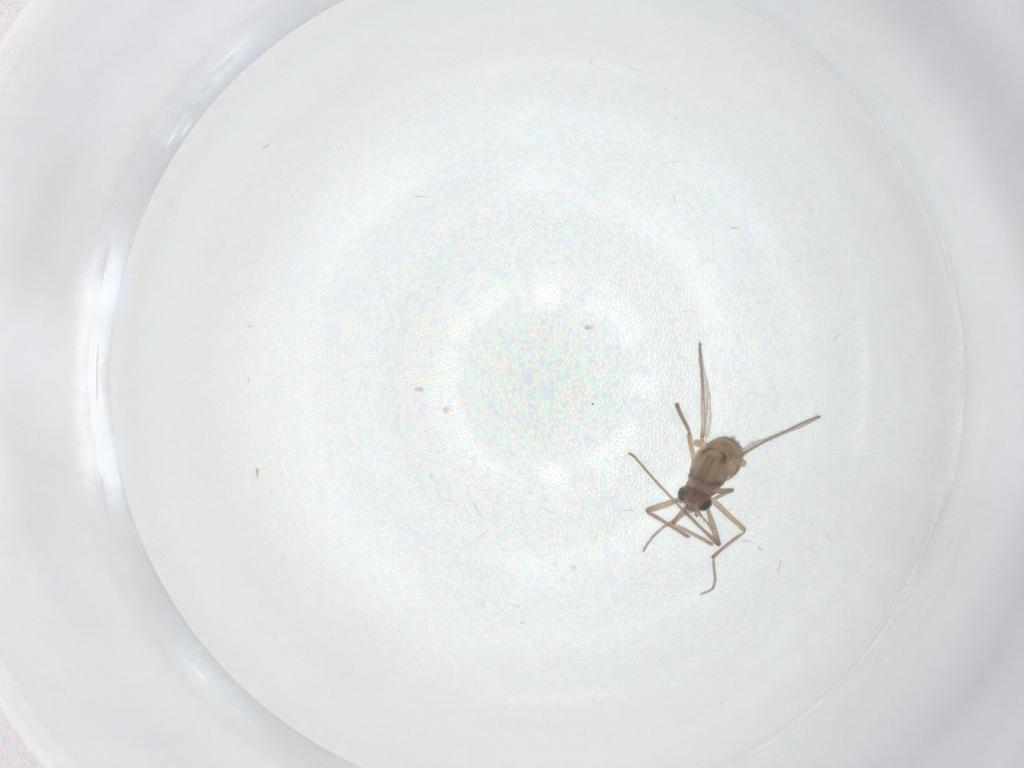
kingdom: Animalia
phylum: Arthropoda
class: Insecta
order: Diptera
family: Chironomidae
